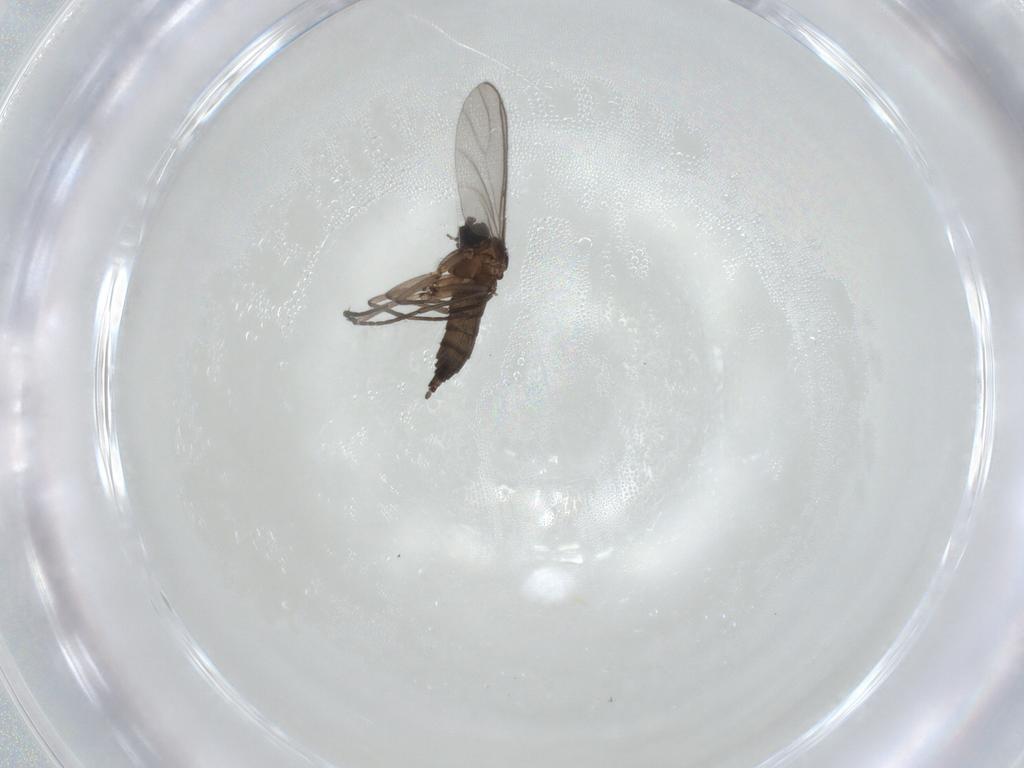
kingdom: Animalia
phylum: Arthropoda
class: Insecta
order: Diptera
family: Sciaridae
